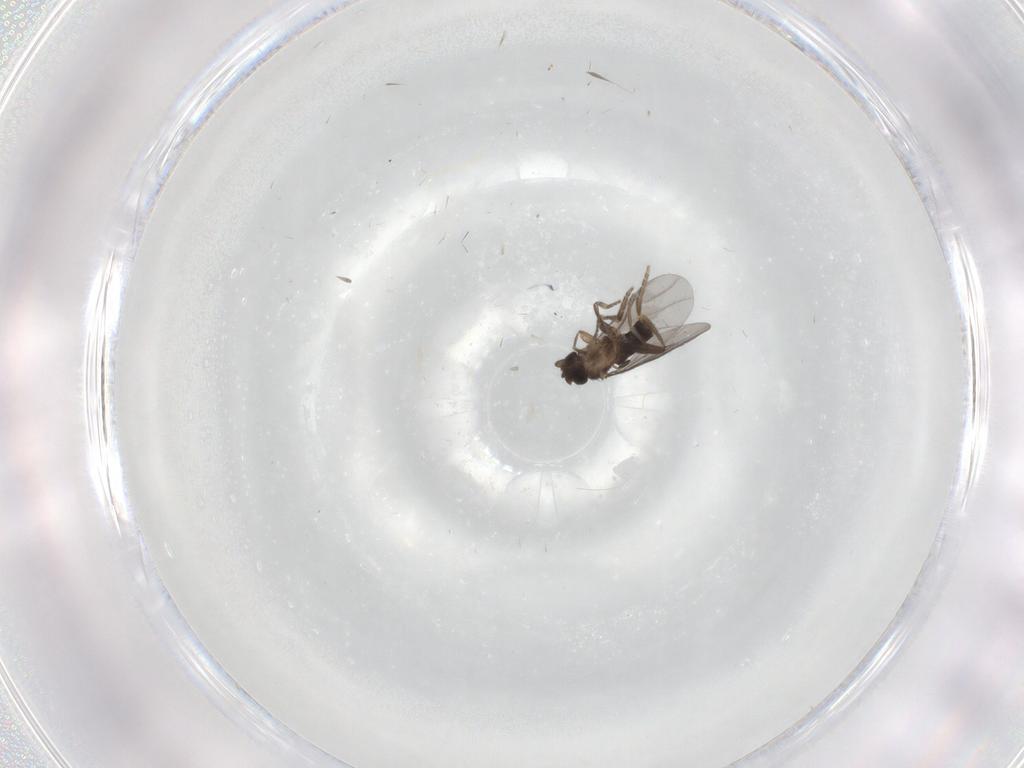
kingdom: Animalia
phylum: Arthropoda
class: Insecta
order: Diptera
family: Phoridae
